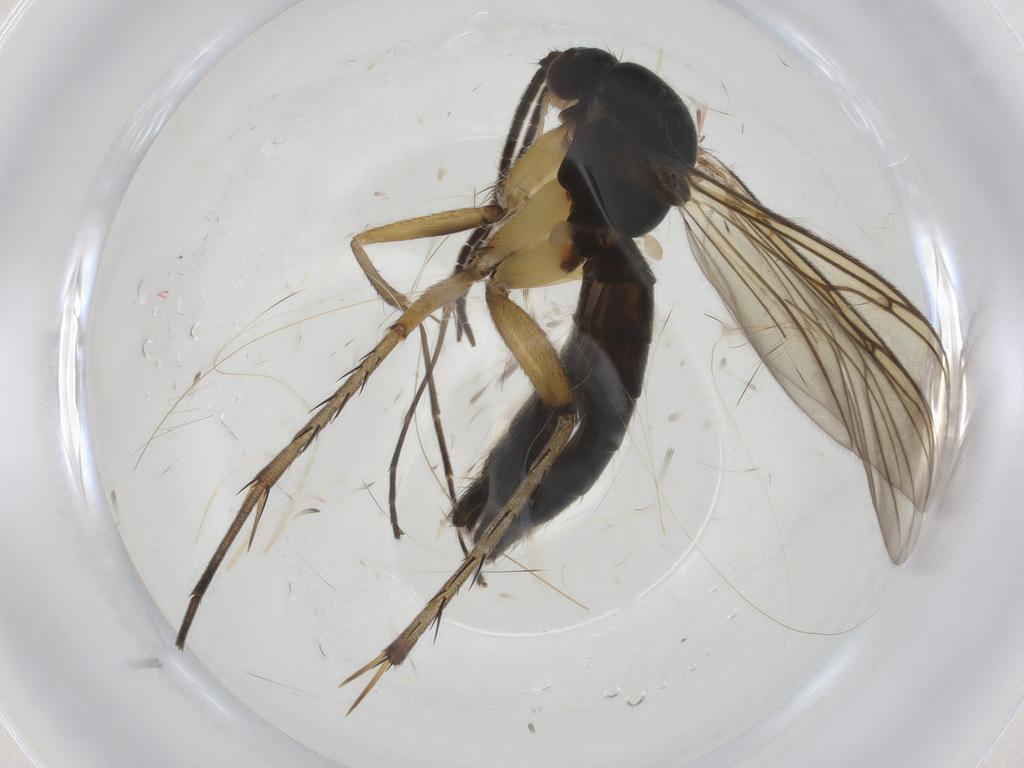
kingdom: Animalia
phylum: Arthropoda
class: Insecta
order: Diptera
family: Mycetophilidae
